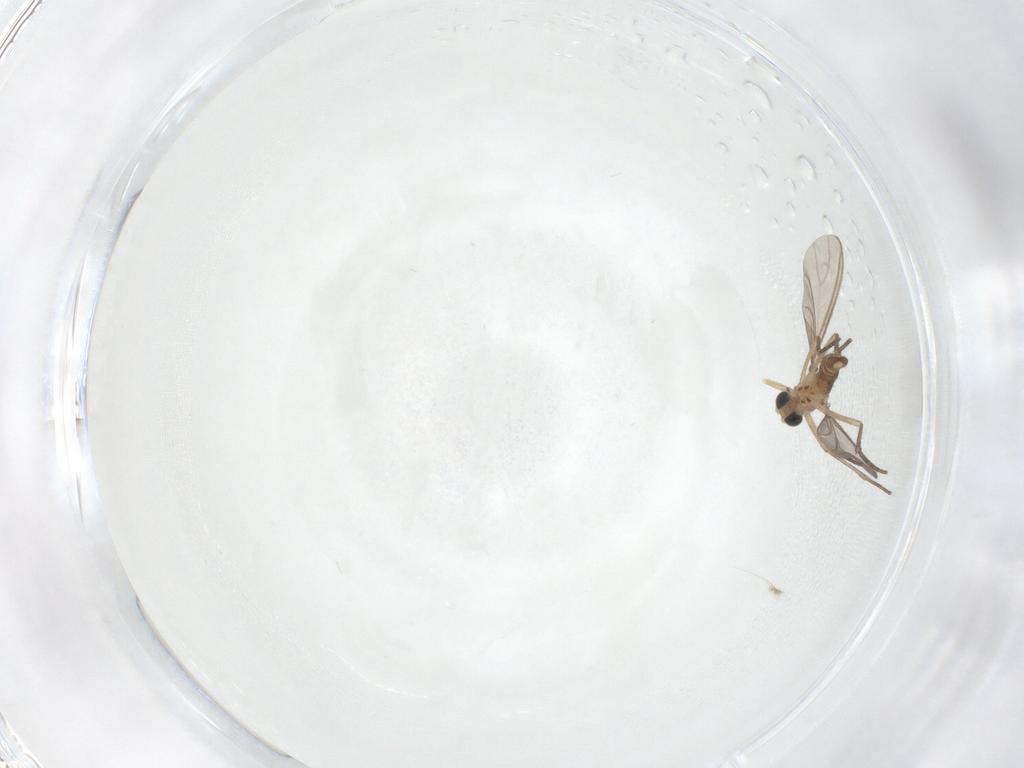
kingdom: Animalia
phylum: Arthropoda
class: Insecta
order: Diptera
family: Sciaridae
